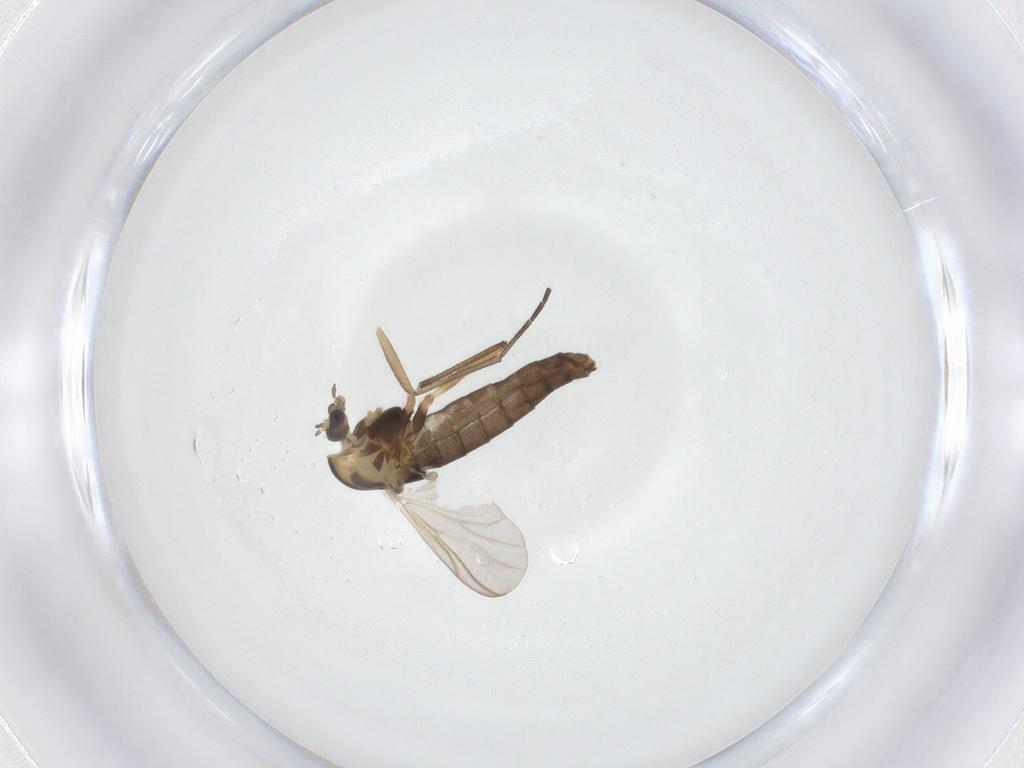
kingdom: Animalia
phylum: Arthropoda
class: Insecta
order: Diptera
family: Chironomidae
